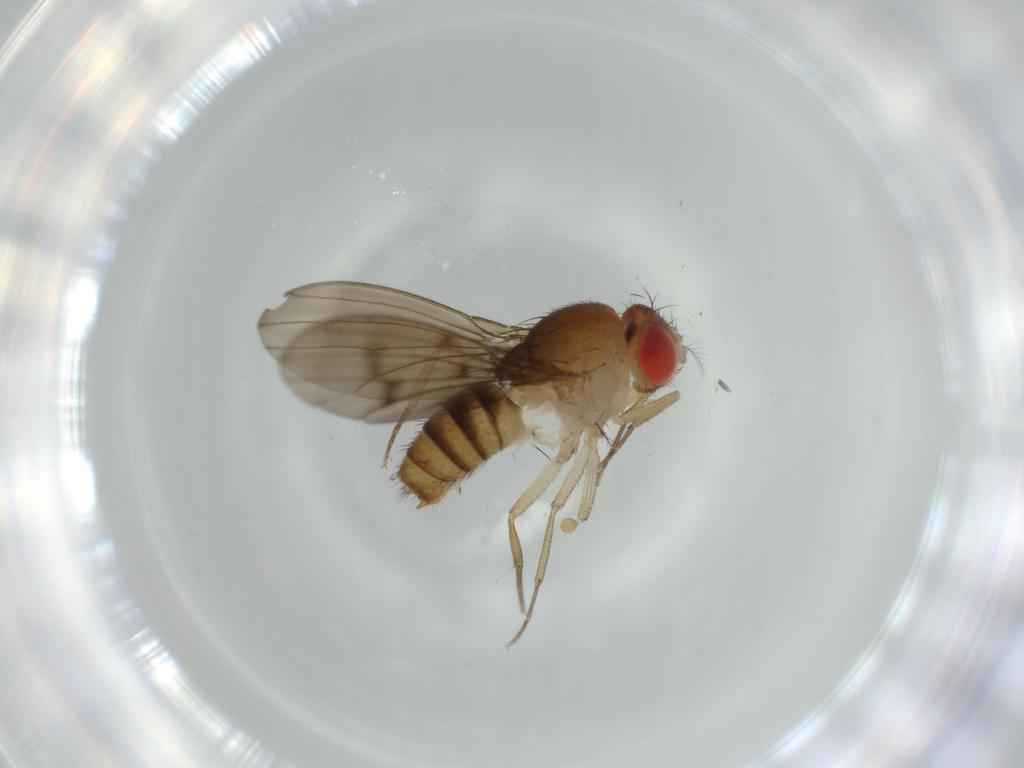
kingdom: Animalia
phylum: Arthropoda
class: Insecta
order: Diptera
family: Drosophilidae
